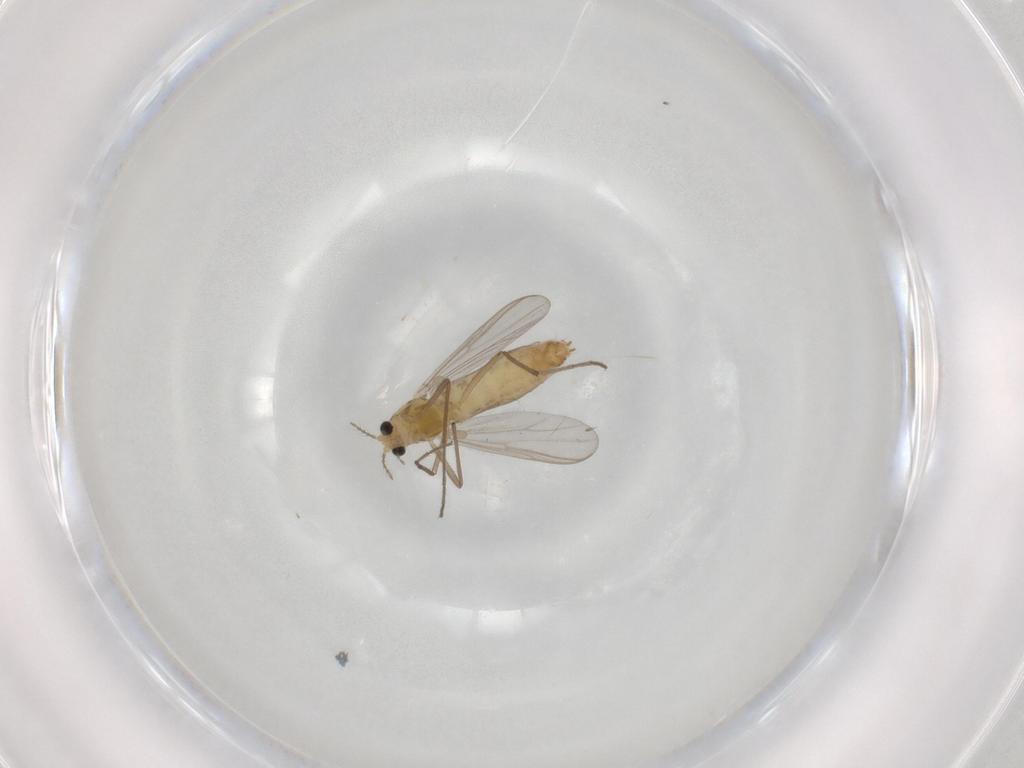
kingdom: Animalia
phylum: Arthropoda
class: Insecta
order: Diptera
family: Chironomidae
